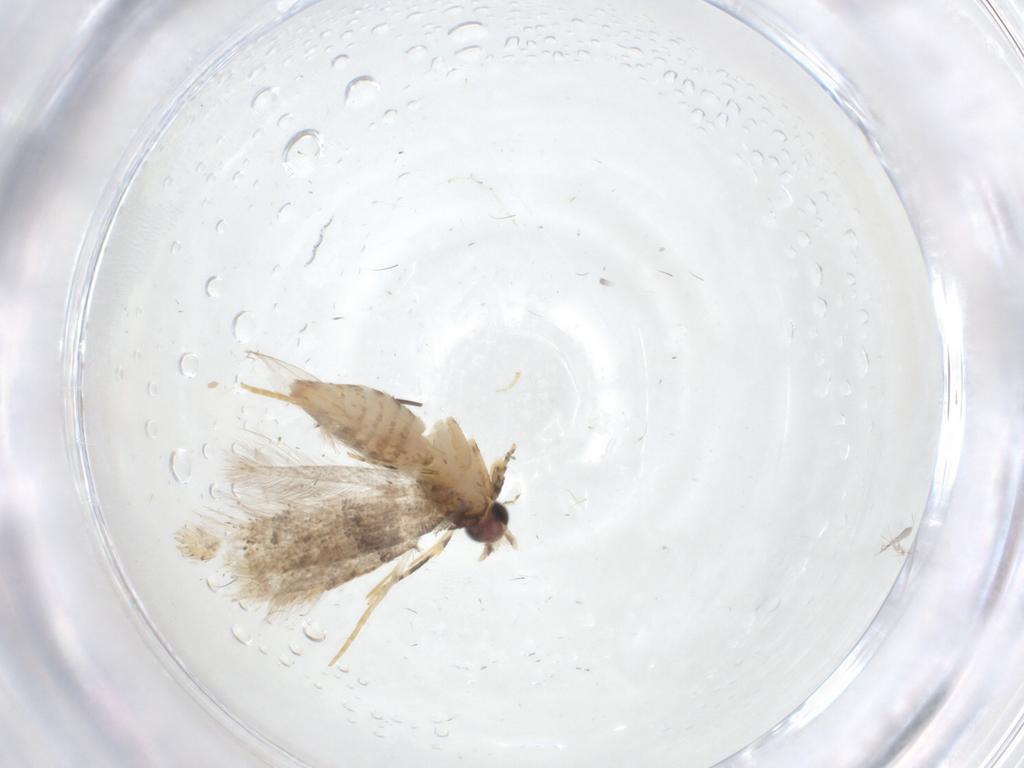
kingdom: Animalia
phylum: Arthropoda
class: Insecta
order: Lepidoptera
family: Tineidae
